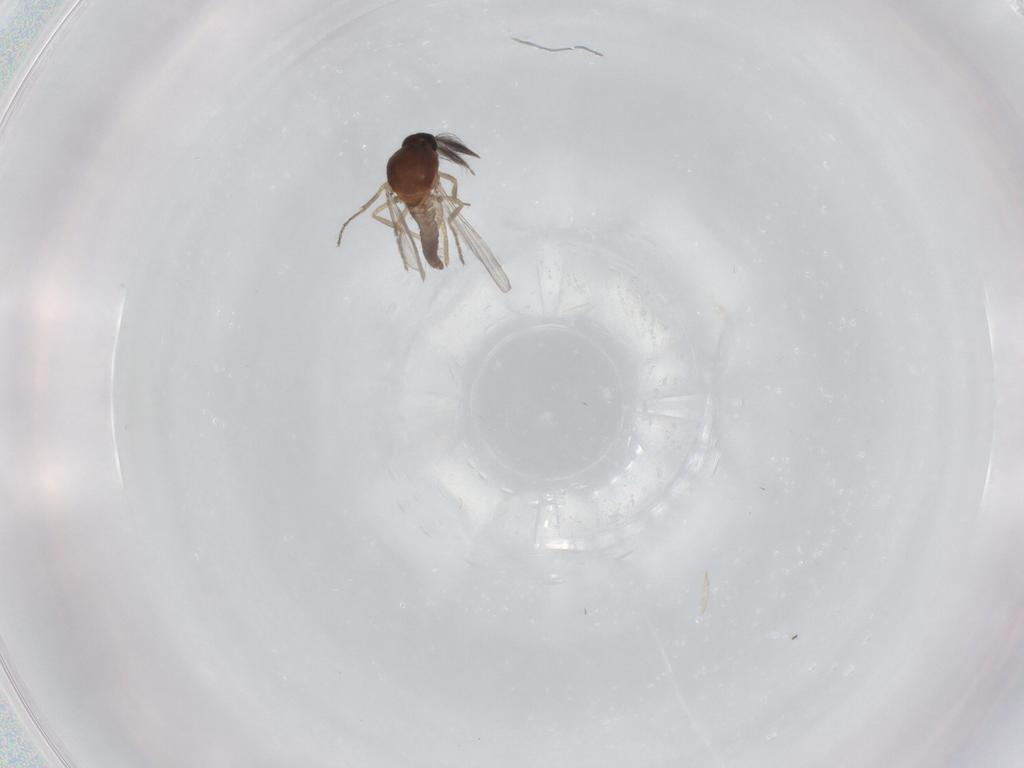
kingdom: Animalia
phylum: Arthropoda
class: Insecta
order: Diptera
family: Ceratopogonidae
